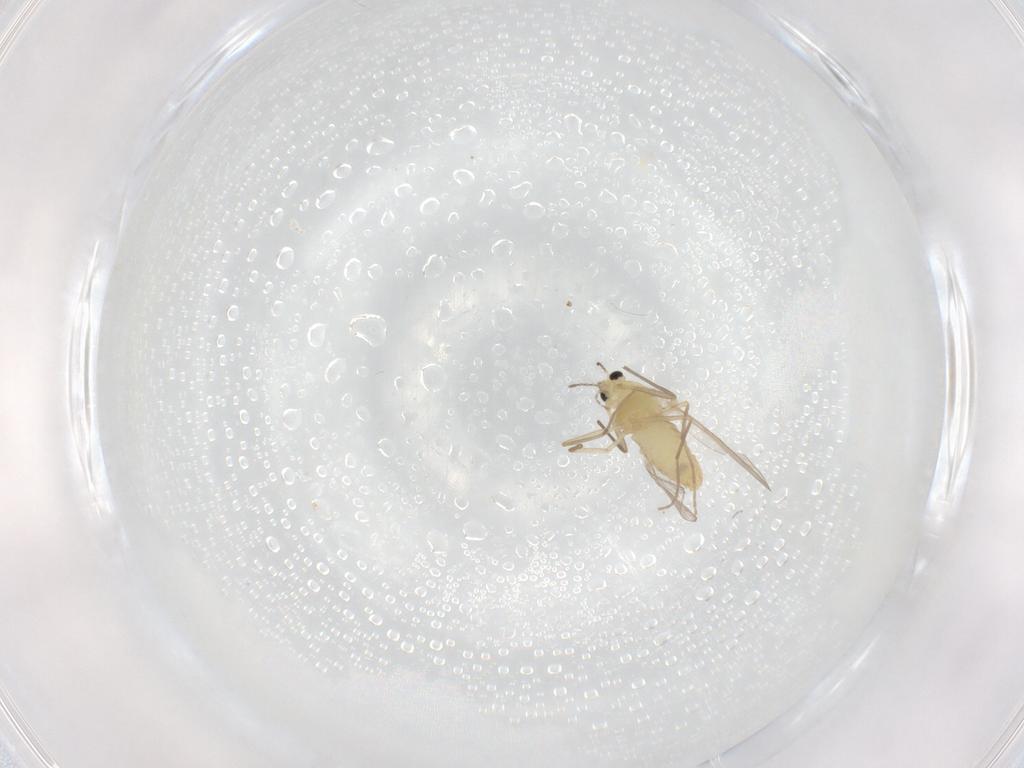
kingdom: Animalia
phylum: Arthropoda
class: Insecta
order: Diptera
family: Chironomidae
